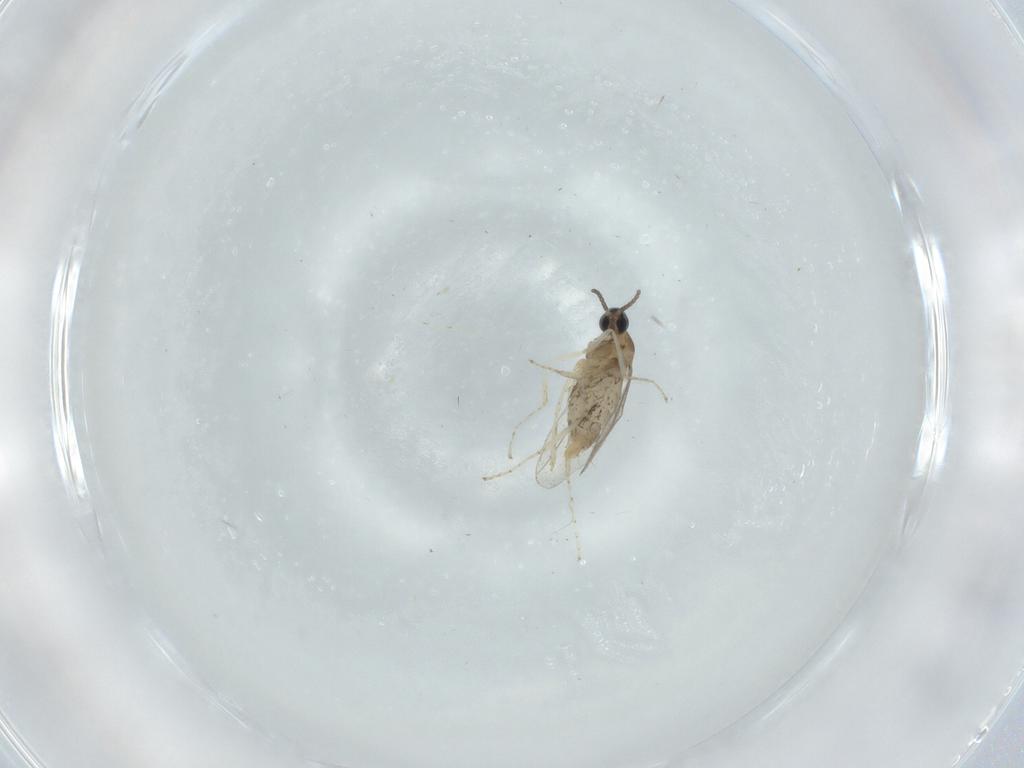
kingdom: Animalia
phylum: Arthropoda
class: Insecta
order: Diptera
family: Cecidomyiidae
